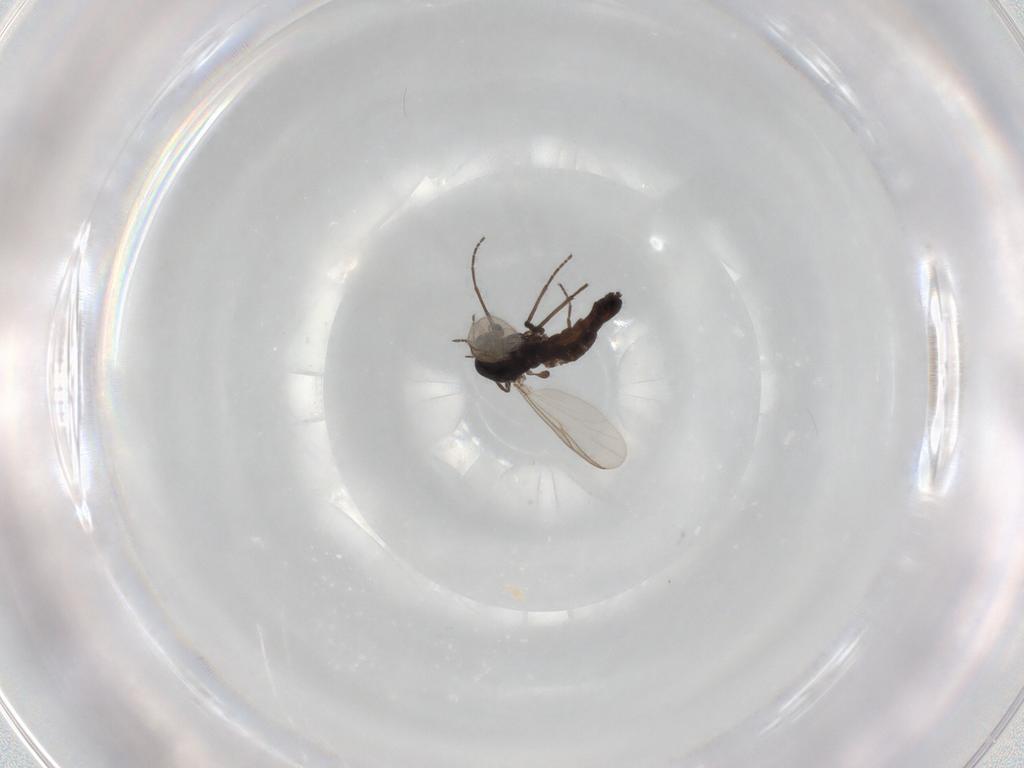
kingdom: Animalia
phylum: Arthropoda
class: Insecta
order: Diptera
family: Chironomidae
